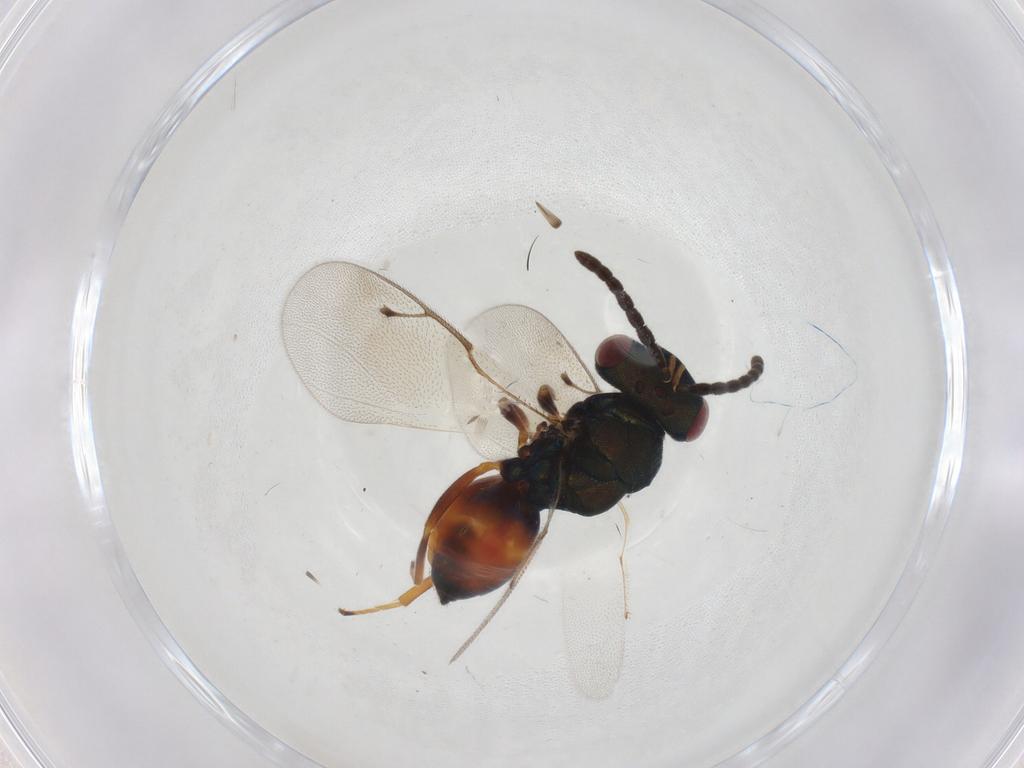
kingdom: Animalia
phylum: Arthropoda
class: Insecta
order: Hymenoptera
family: Pteromalidae
